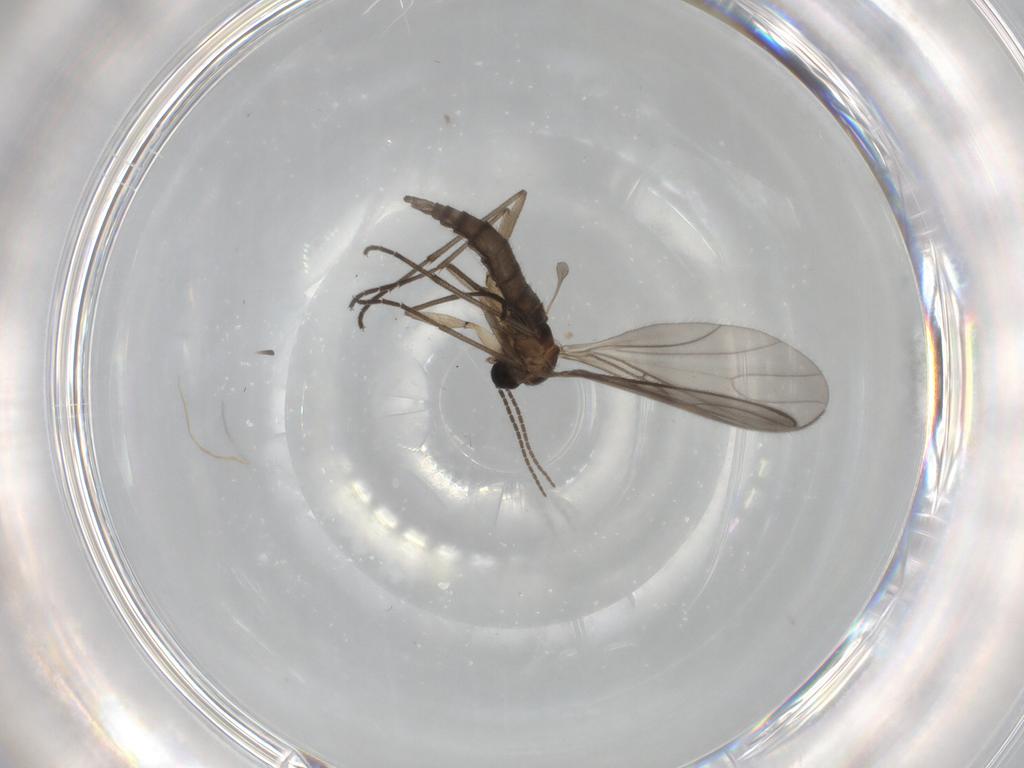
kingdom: Animalia
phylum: Arthropoda
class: Insecta
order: Diptera
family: Sciaridae
